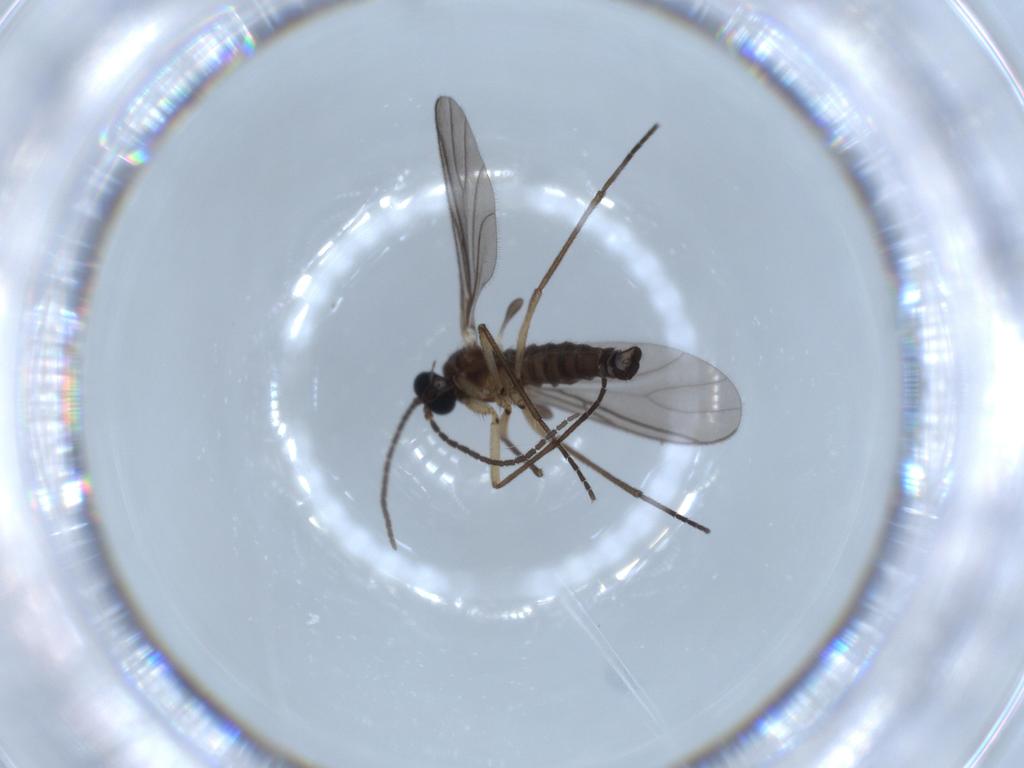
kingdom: Animalia
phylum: Arthropoda
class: Insecta
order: Diptera
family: Sciaridae
